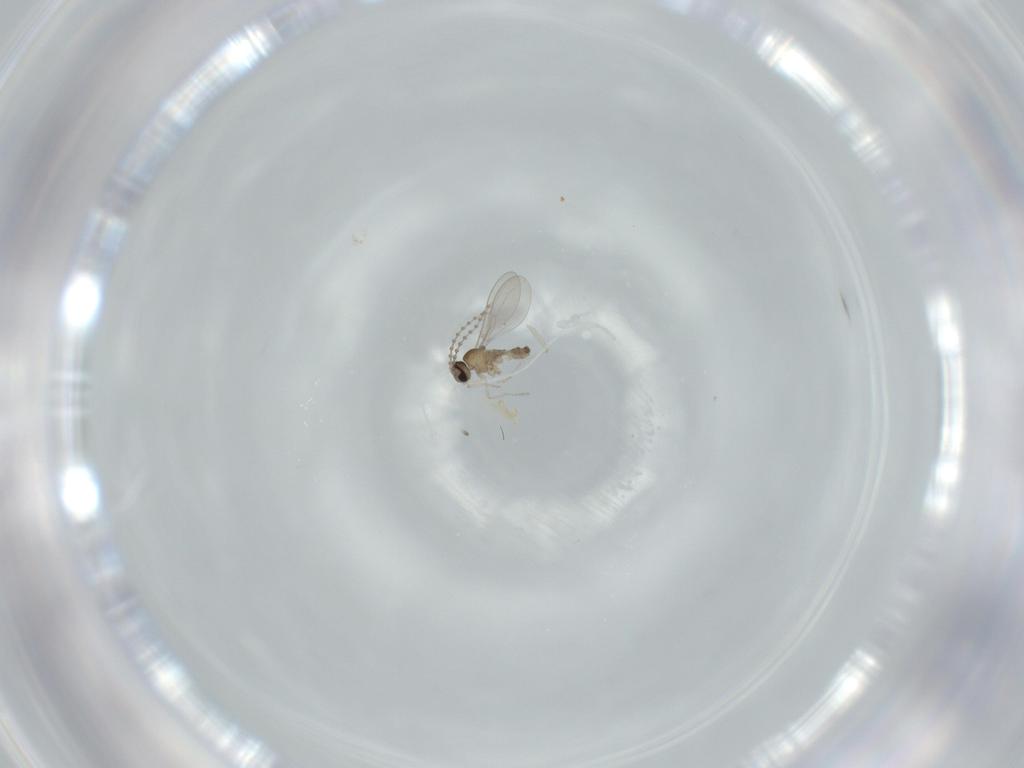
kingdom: Animalia
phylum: Arthropoda
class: Insecta
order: Diptera
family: Cecidomyiidae
